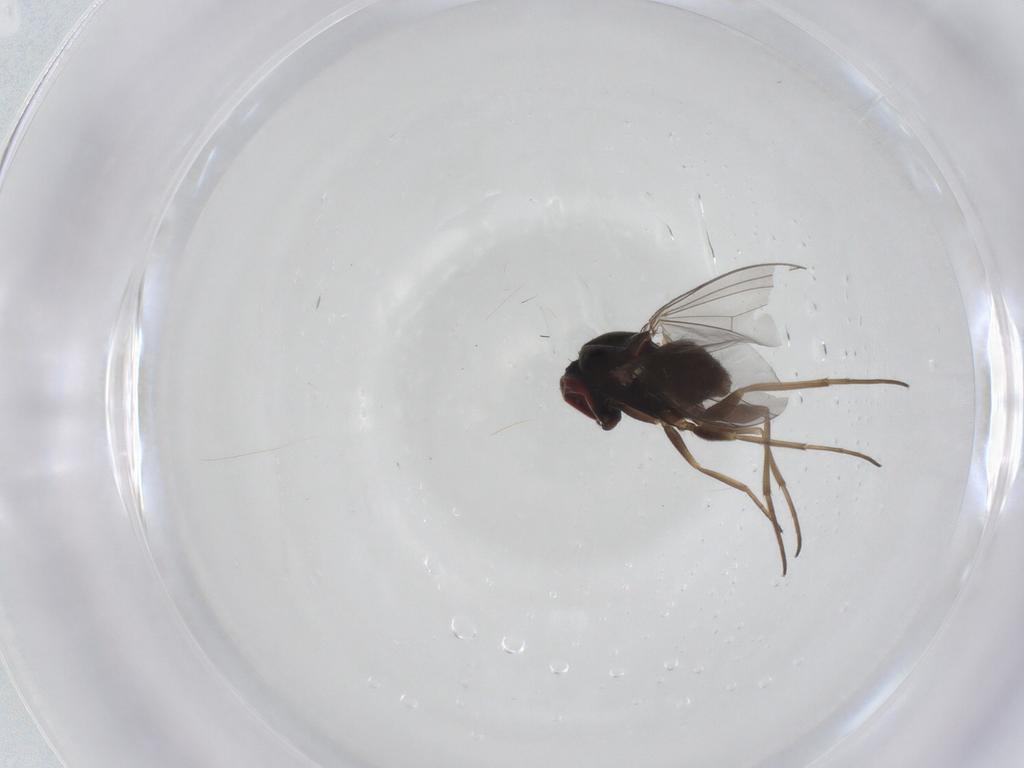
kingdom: Animalia
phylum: Arthropoda
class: Insecta
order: Diptera
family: Dolichopodidae
